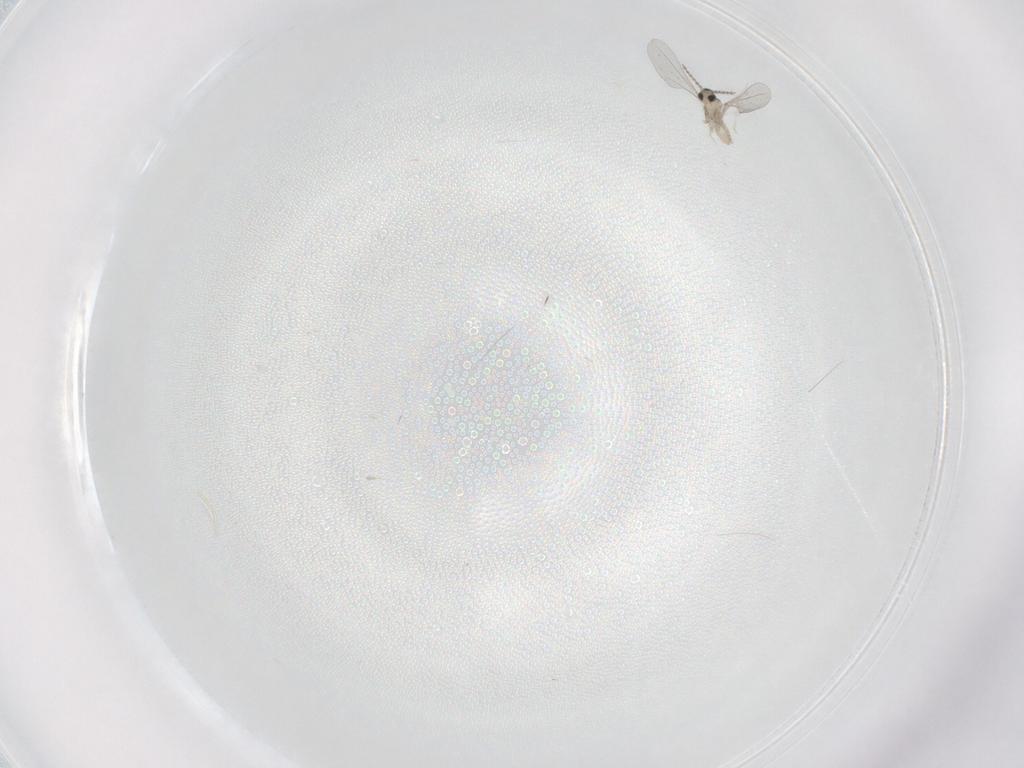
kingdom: Animalia
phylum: Arthropoda
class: Insecta
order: Diptera
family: Cecidomyiidae
